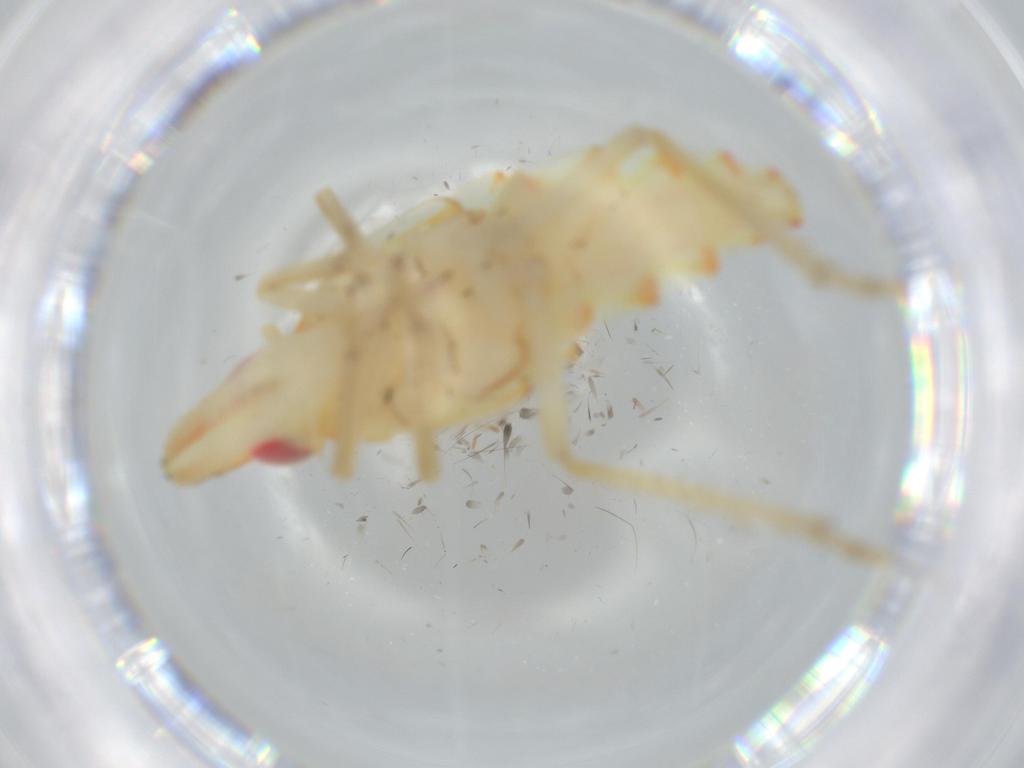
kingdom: Animalia
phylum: Arthropoda
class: Insecta
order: Hemiptera
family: Tropiduchidae
